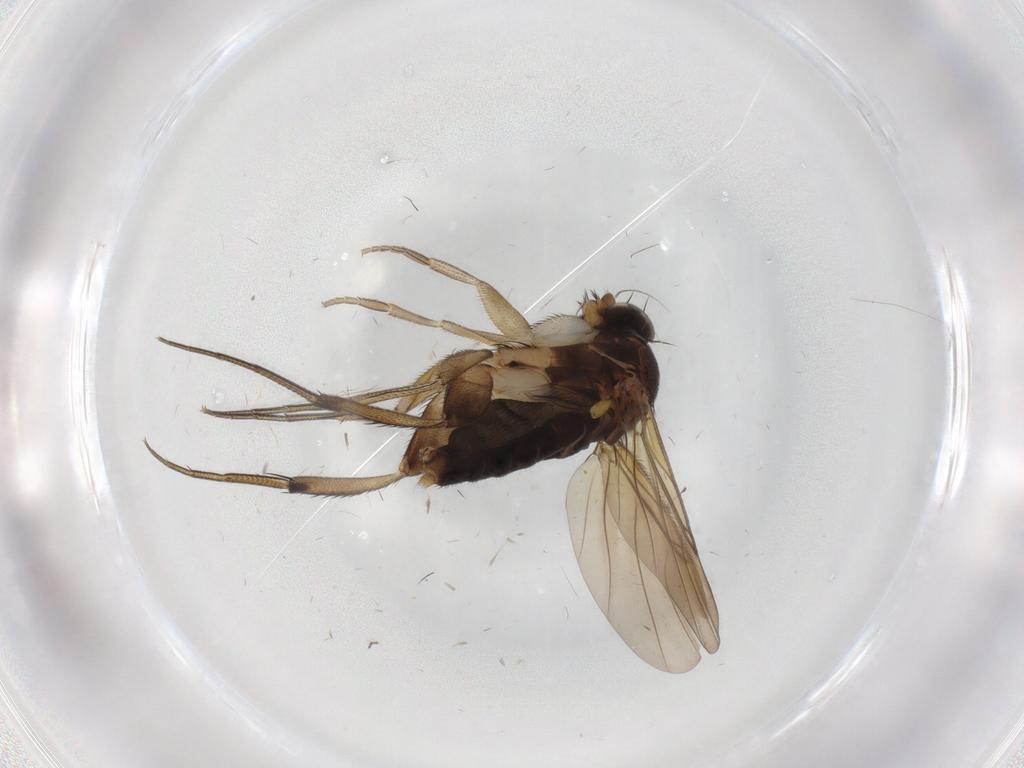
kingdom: Animalia
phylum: Arthropoda
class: Insecta
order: Diptera
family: Phoridae
